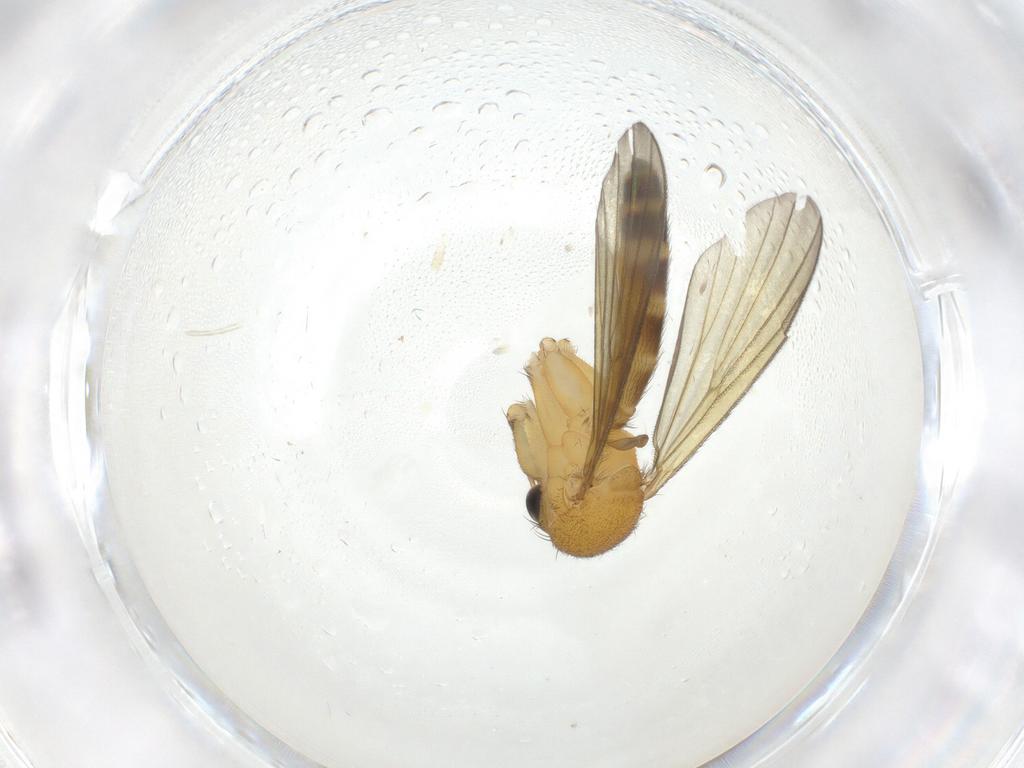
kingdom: Animalia
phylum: Arthropoda
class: Insecta
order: Diptera
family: Mycetophilidae
